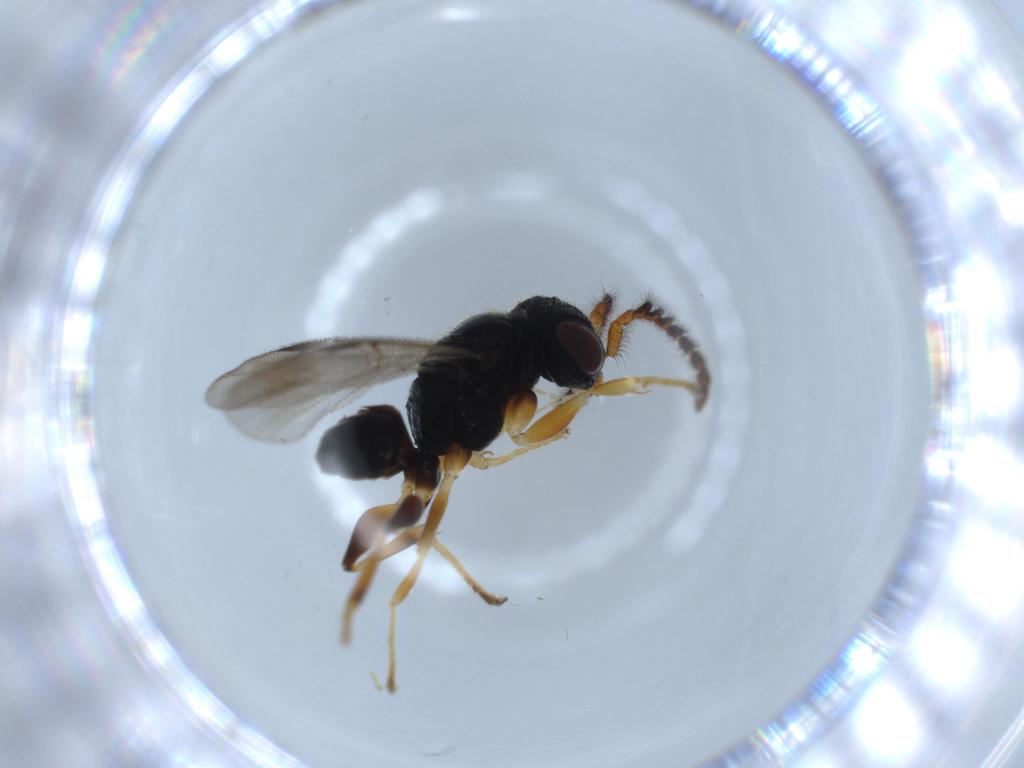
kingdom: Animalia
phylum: Arthropoda
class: Insecta
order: Hymenoptera
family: Dryinidae
